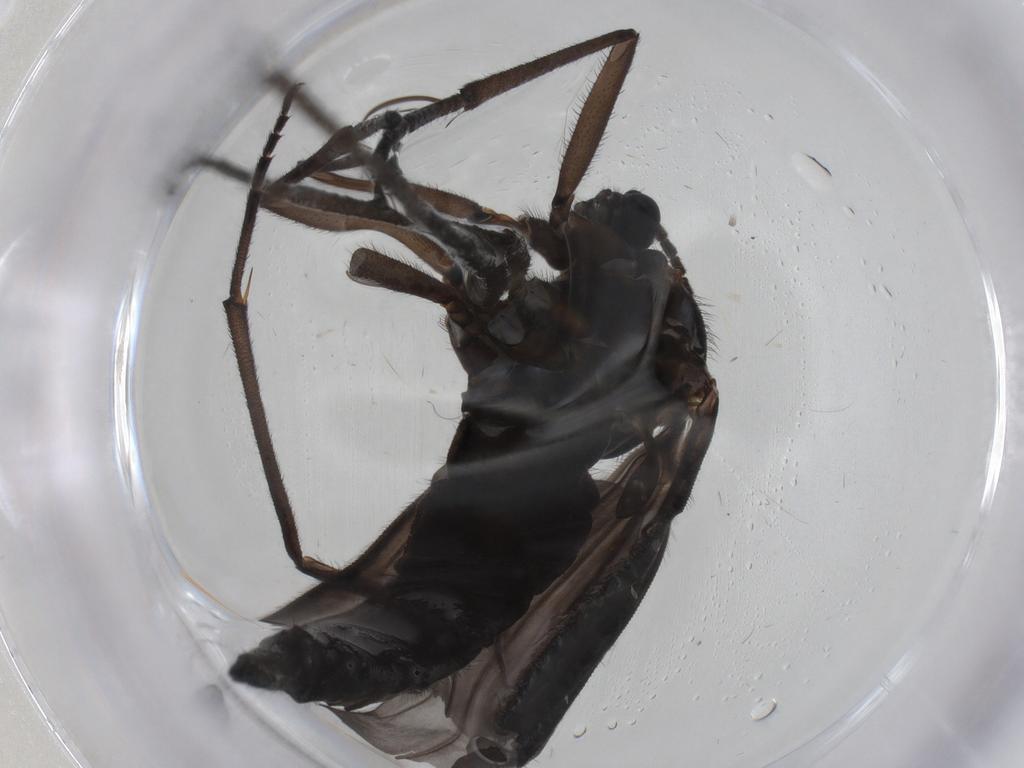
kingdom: Animalia
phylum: Arthropoda
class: Insecta
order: Diptera
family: Sciaridae
